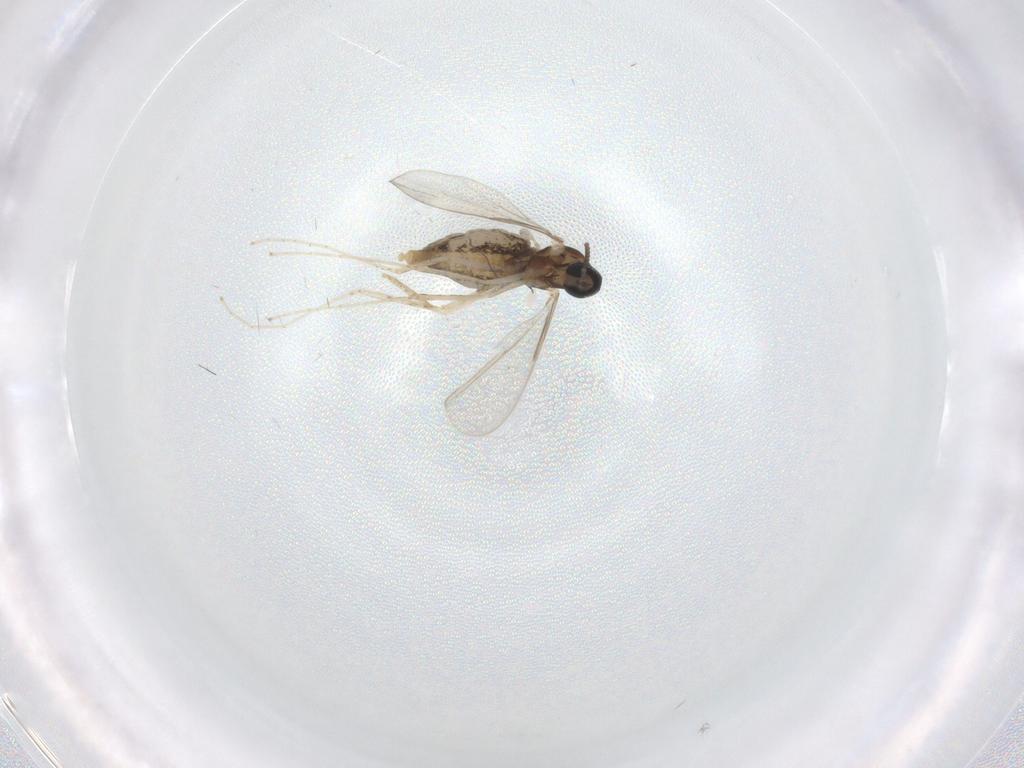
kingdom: Animalia
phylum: Arthropoda
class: Insecta
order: Diptera
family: Cecidomyiidae
